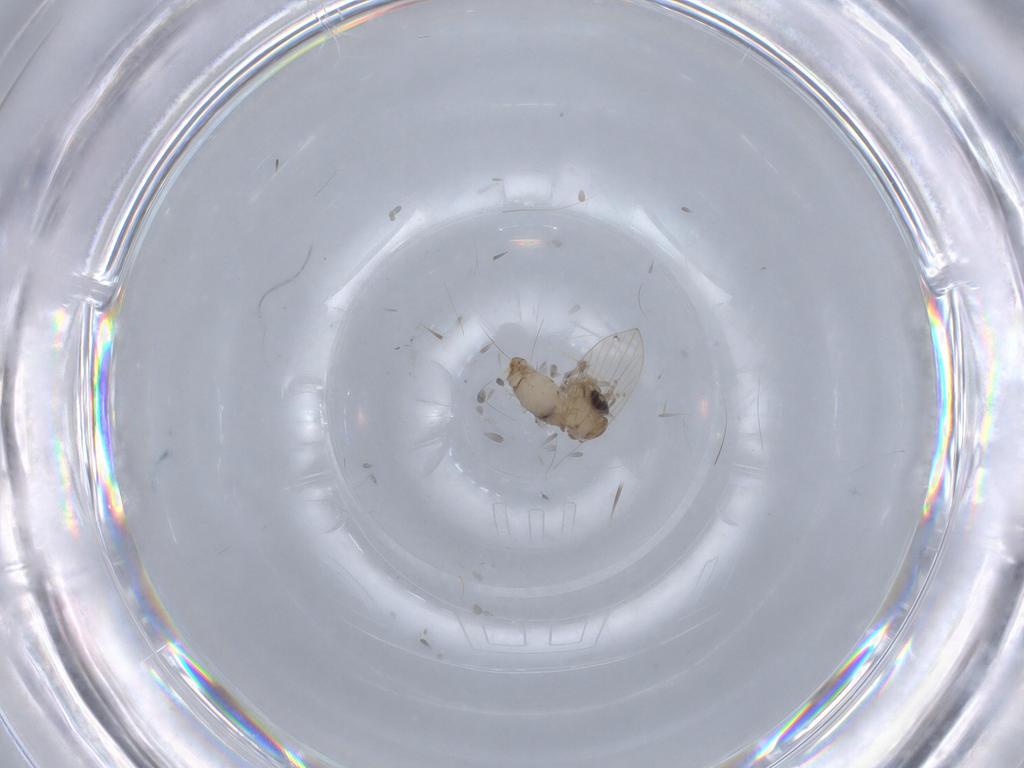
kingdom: Animalia
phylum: Arthropoda
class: Insecta
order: Diptera
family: Psychodidae
